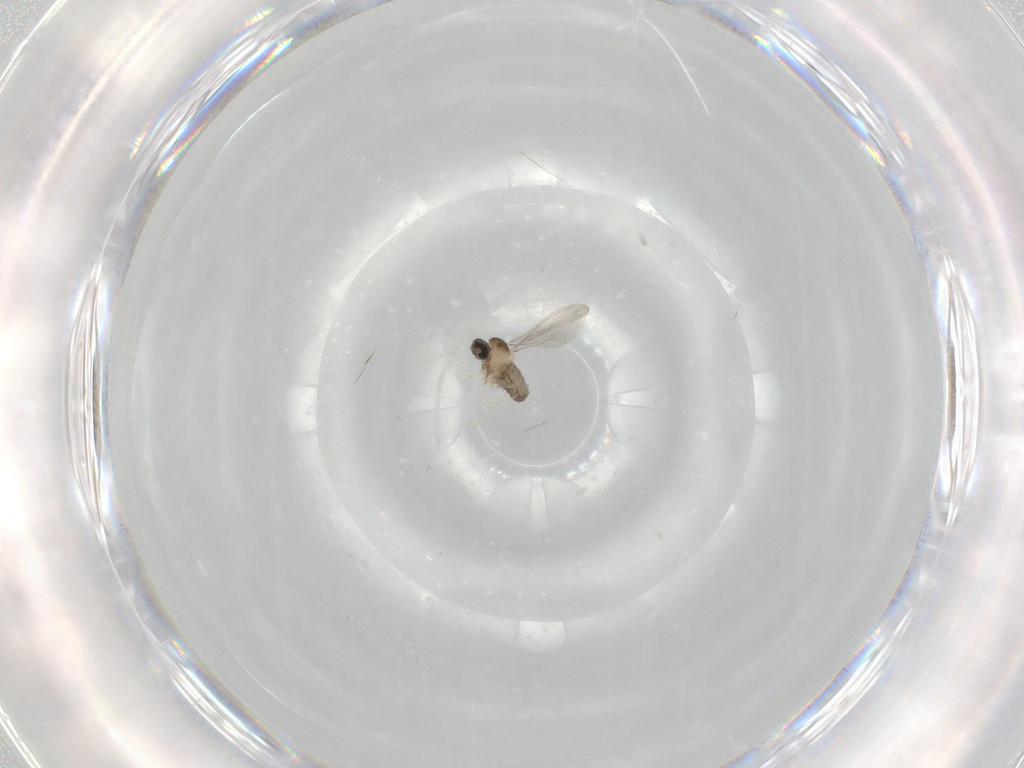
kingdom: Animalia
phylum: Arthropoda
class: Insecta
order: Diptera
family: Cecidomyiidae
